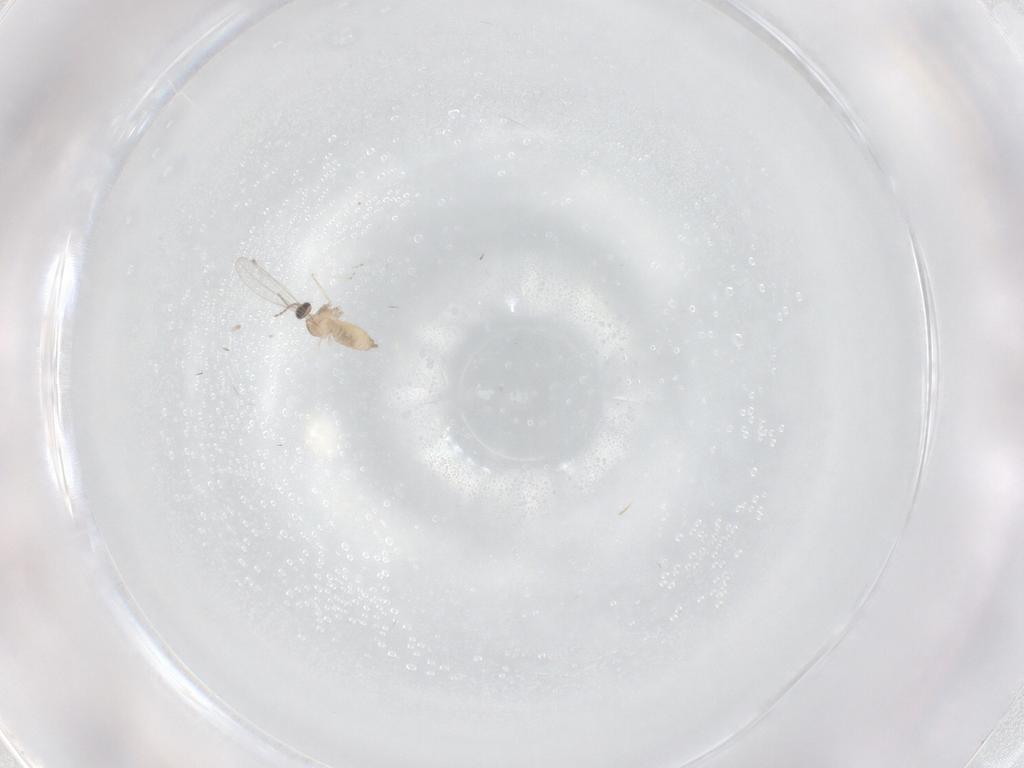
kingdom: Animalia
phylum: Arthropoda
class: Insecta
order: Diptera
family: Cecidomyiidae
